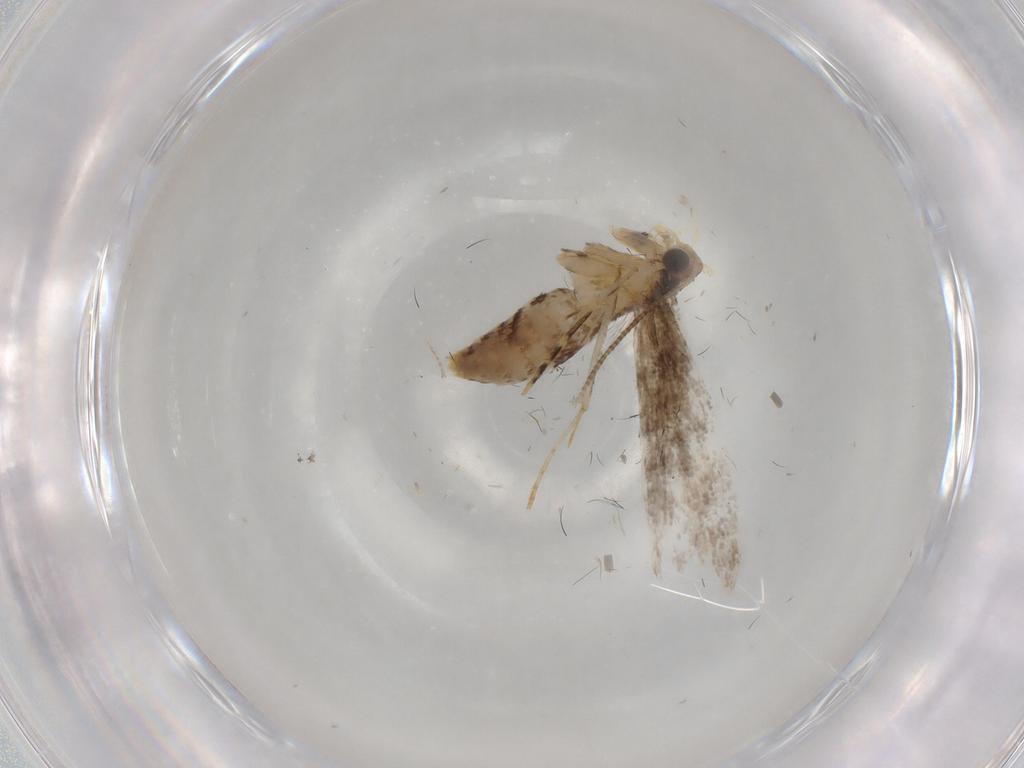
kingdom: Animalia
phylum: Arthropoda
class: Insecta
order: Lepidoptera
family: Tineidae
